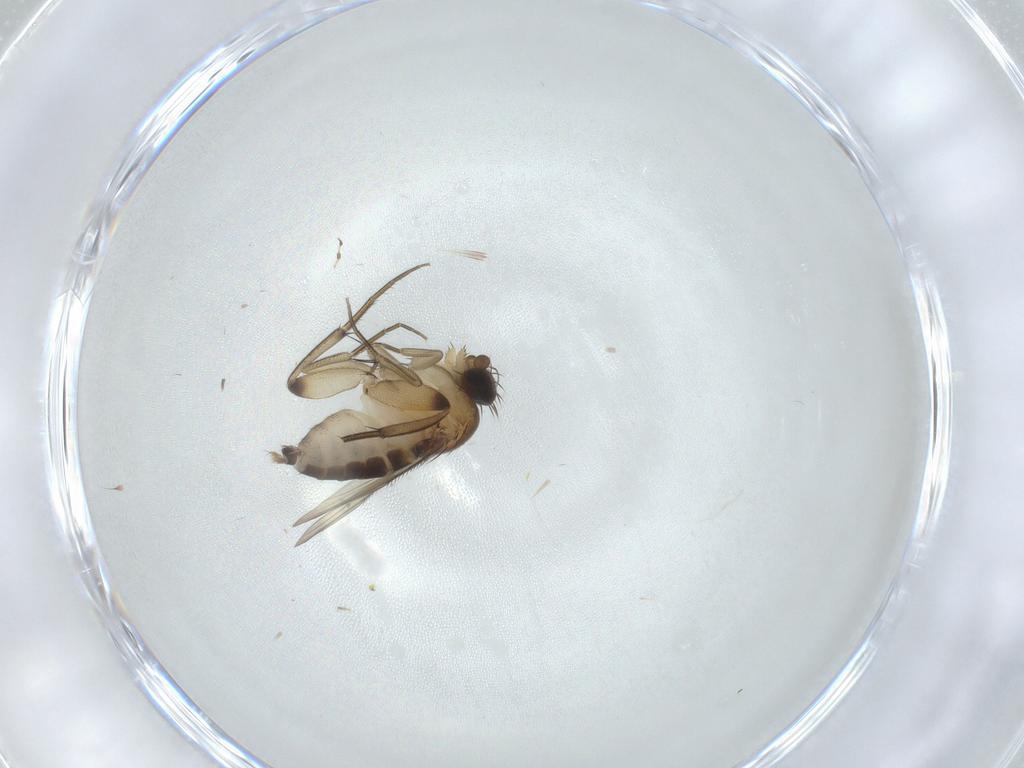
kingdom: Animalia
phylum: Arthropoda
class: Insecta
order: Diptera
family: Phoridae
